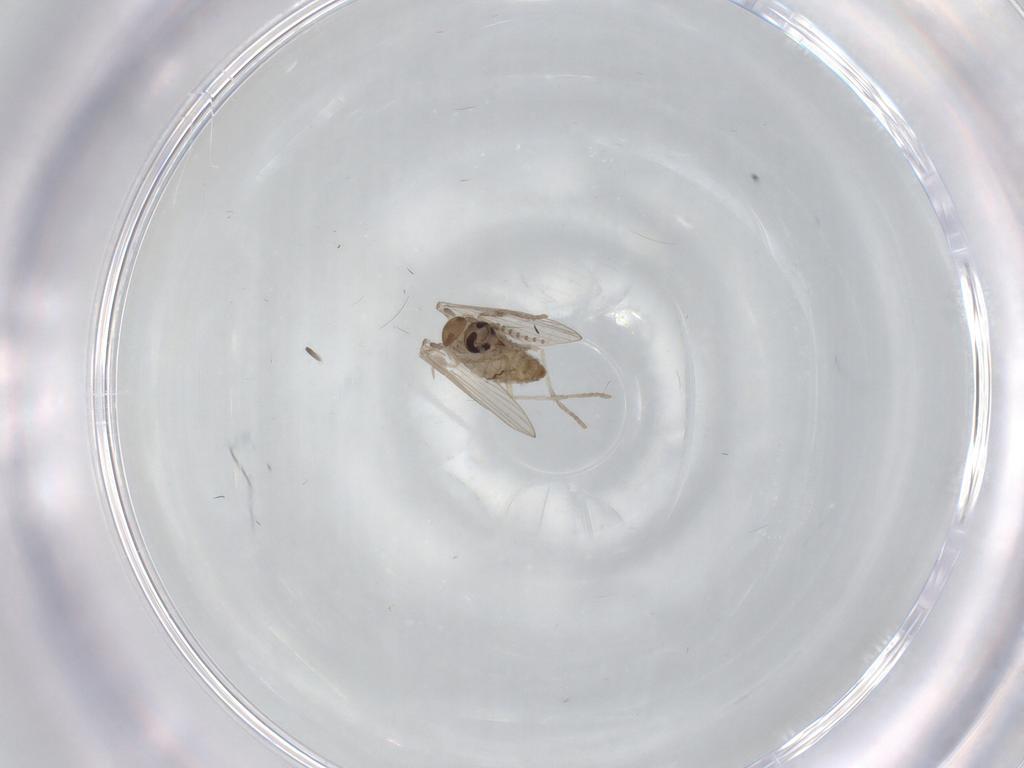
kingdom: Animalia
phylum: Arthropoda
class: Insecta
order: Diptera
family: Psychodidae
